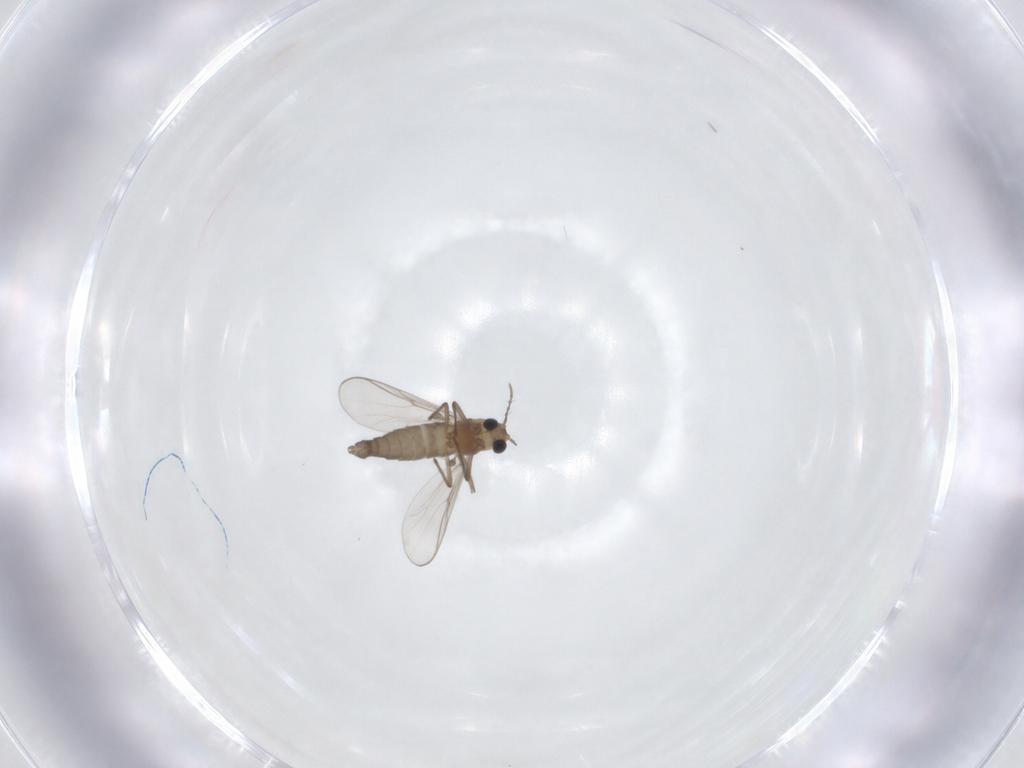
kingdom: Animalia
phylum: Arthropoda
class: Insecta
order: Diptera
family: Chironomidae
